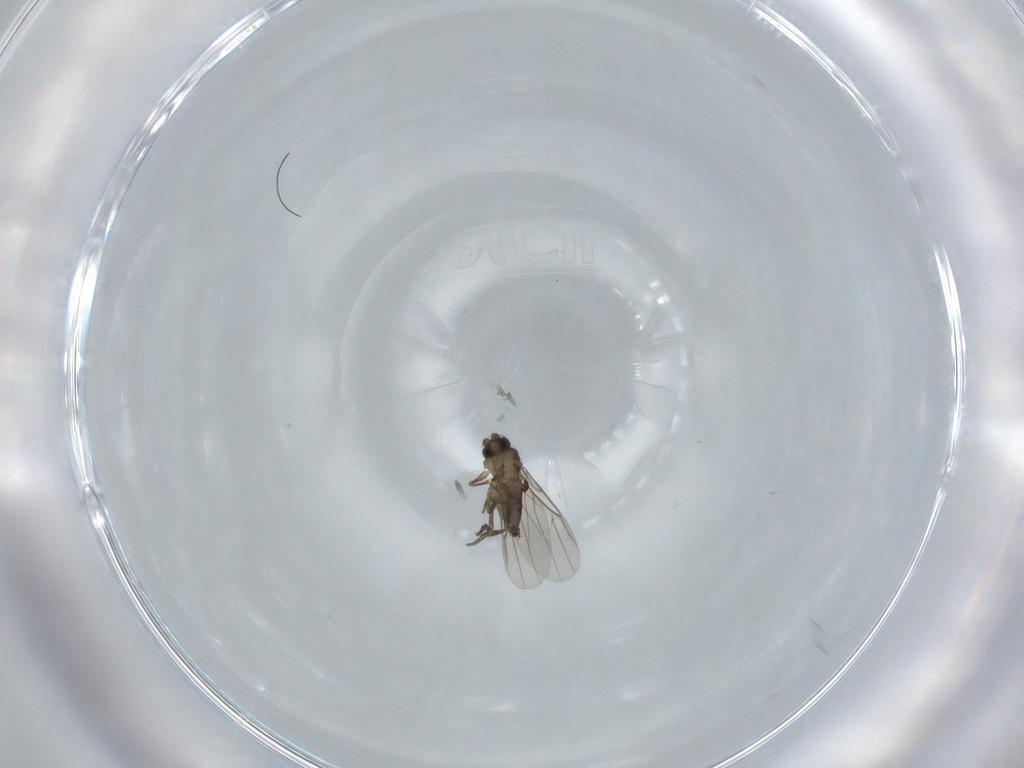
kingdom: Animalia
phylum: Arthropoda
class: Insecta
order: Diptera
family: Phoridae
